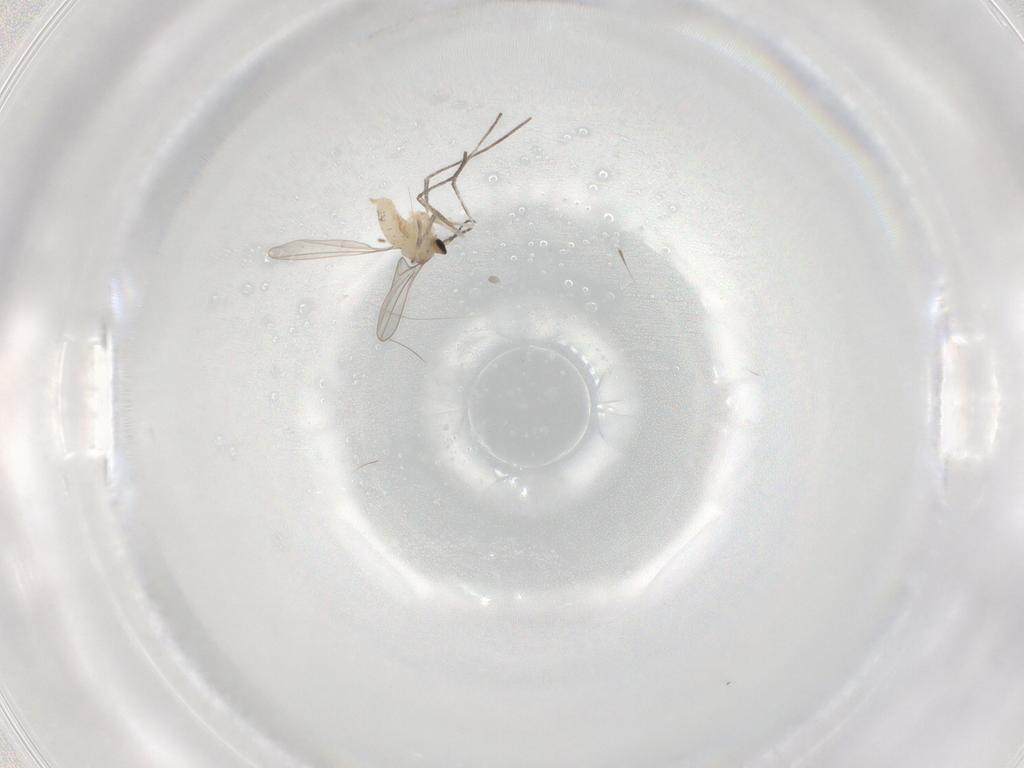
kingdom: Animalia
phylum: Arthropoda
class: Insecta
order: Diptera
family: Cecidomyiidae
